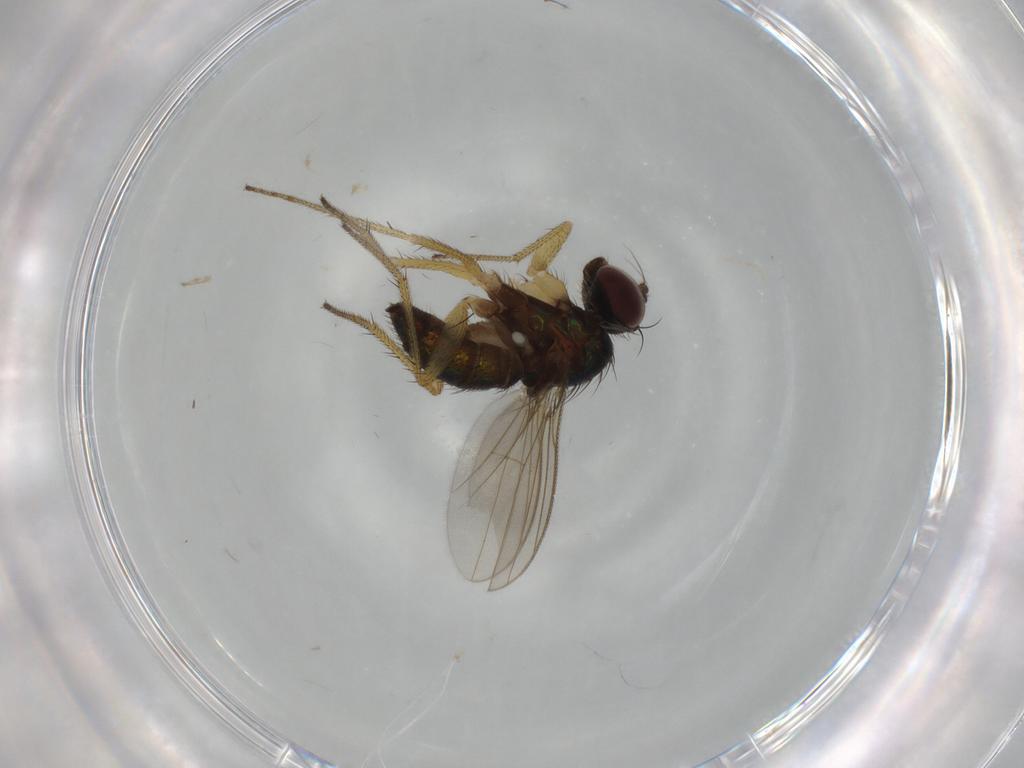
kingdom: Animalia
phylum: Arthropoda
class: Insecta
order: Diptera
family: Dolichopodidae
